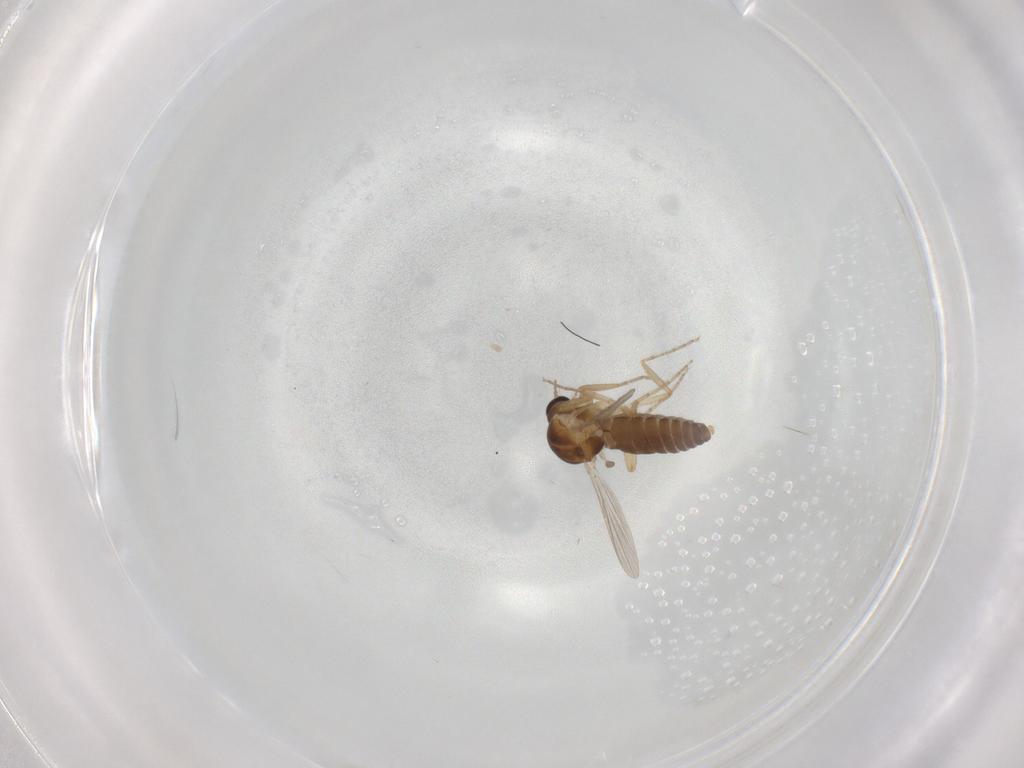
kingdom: Animalia
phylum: Arthropoda
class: Insecta
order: Diptera
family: Ceratopogonidae
